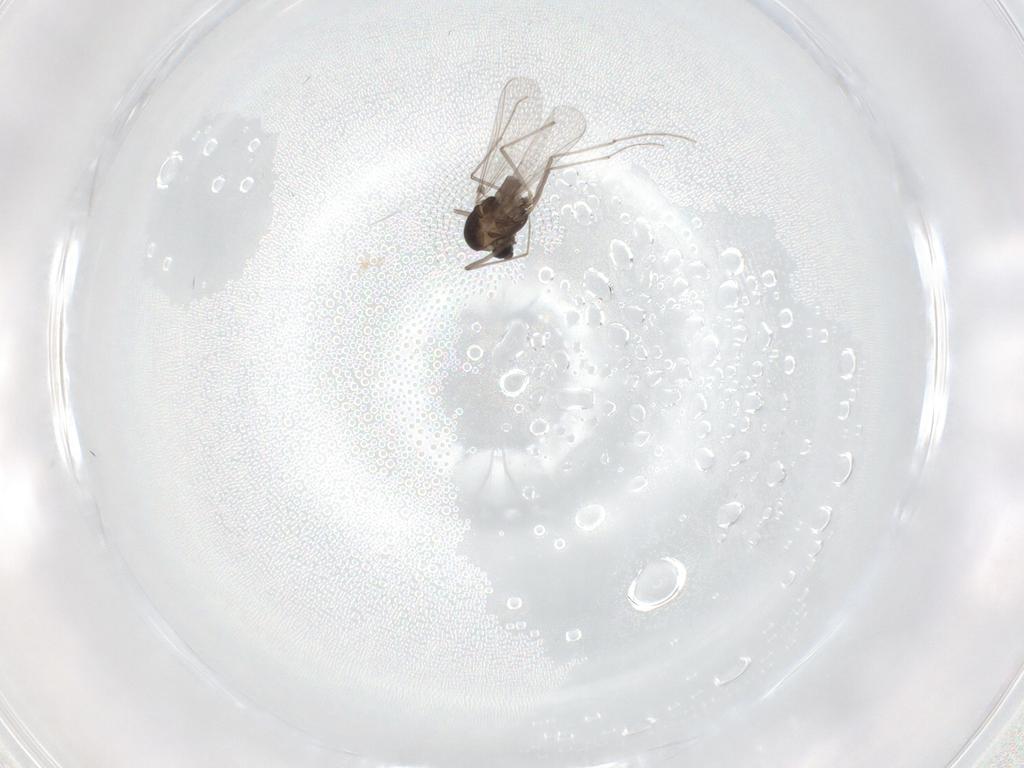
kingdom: Animalia
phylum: Arthropoda
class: Insecta
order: Diptera
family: Chironomidae
